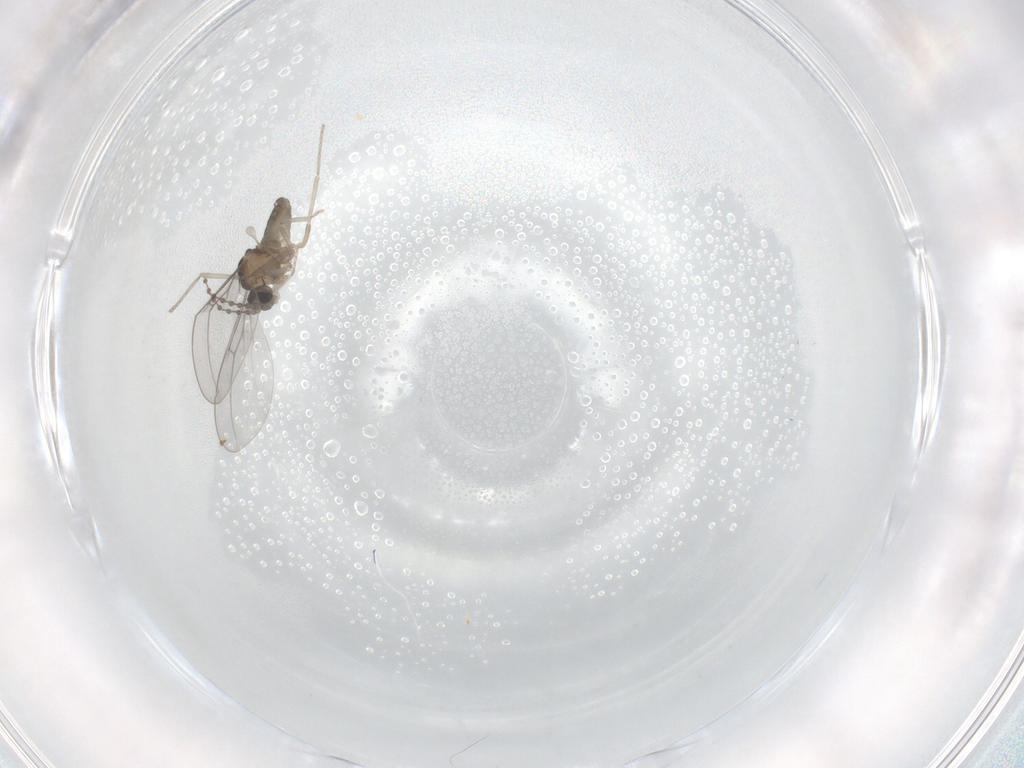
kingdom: Animalia
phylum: Arthropoda
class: Insecta
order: Diptera
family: Cecidomyiidae
